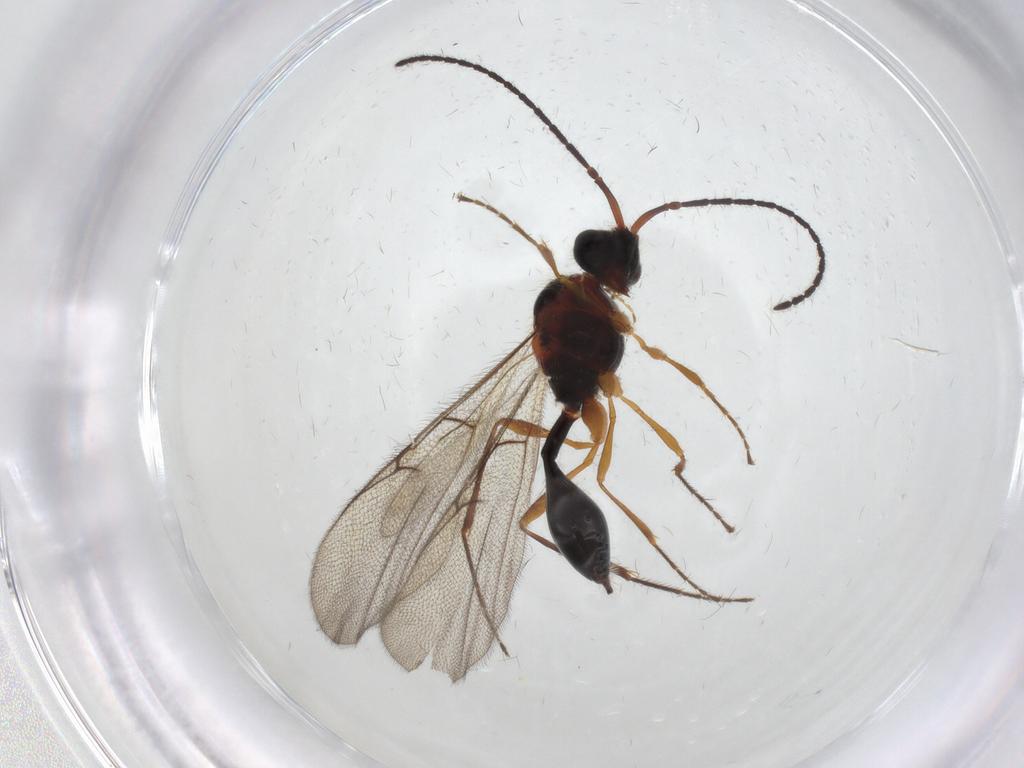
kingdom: Animalia
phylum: Arthropoda
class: Insecta
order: Hymenoptera
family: Diapriidae
